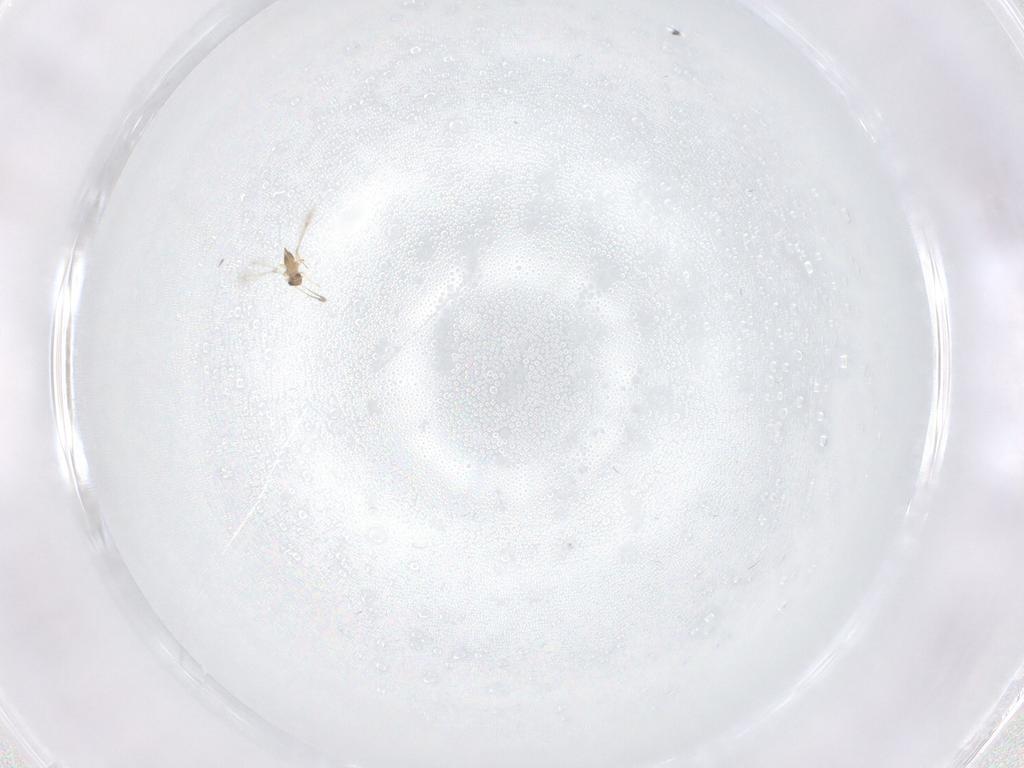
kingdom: Animalia
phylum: Arthropoda
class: Insecta
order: Hymenoptera
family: Mymaridae
